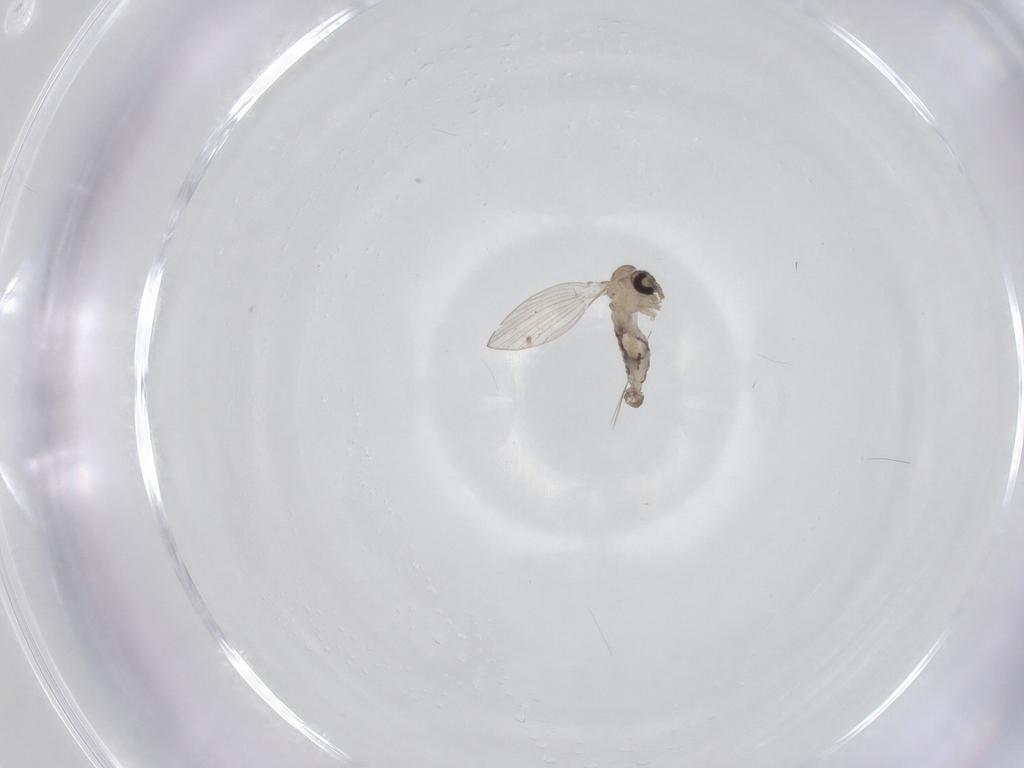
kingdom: Animalia
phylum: Arthropoda
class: Insecta
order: Diptera
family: Psychodidae
